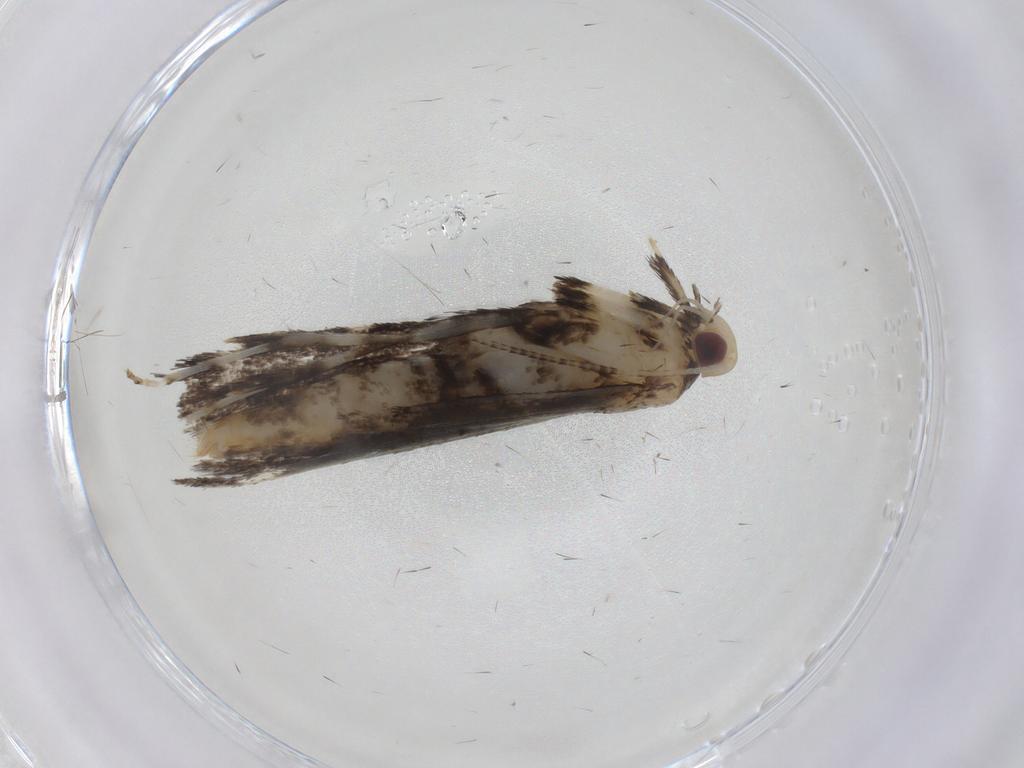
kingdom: Animalia
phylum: Arthropoda
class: Insecta
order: Lepidoptera
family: Gracillariidae
